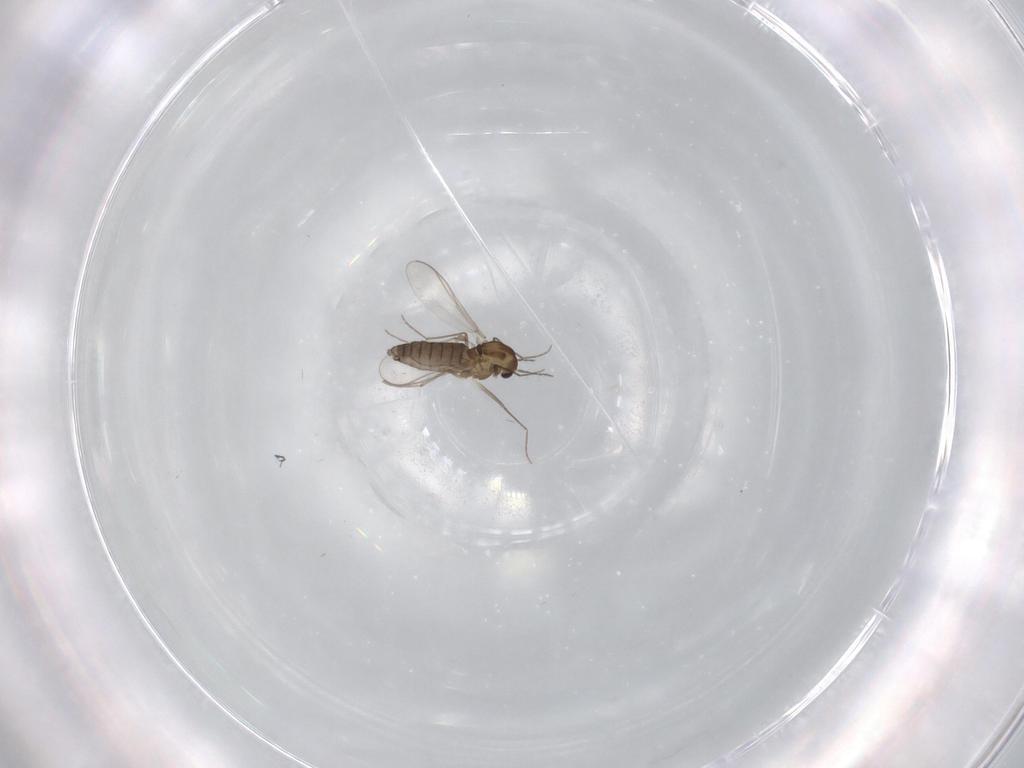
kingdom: Animalia
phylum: Arthropoda
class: Insecta
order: Diptera
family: Chironomidae
